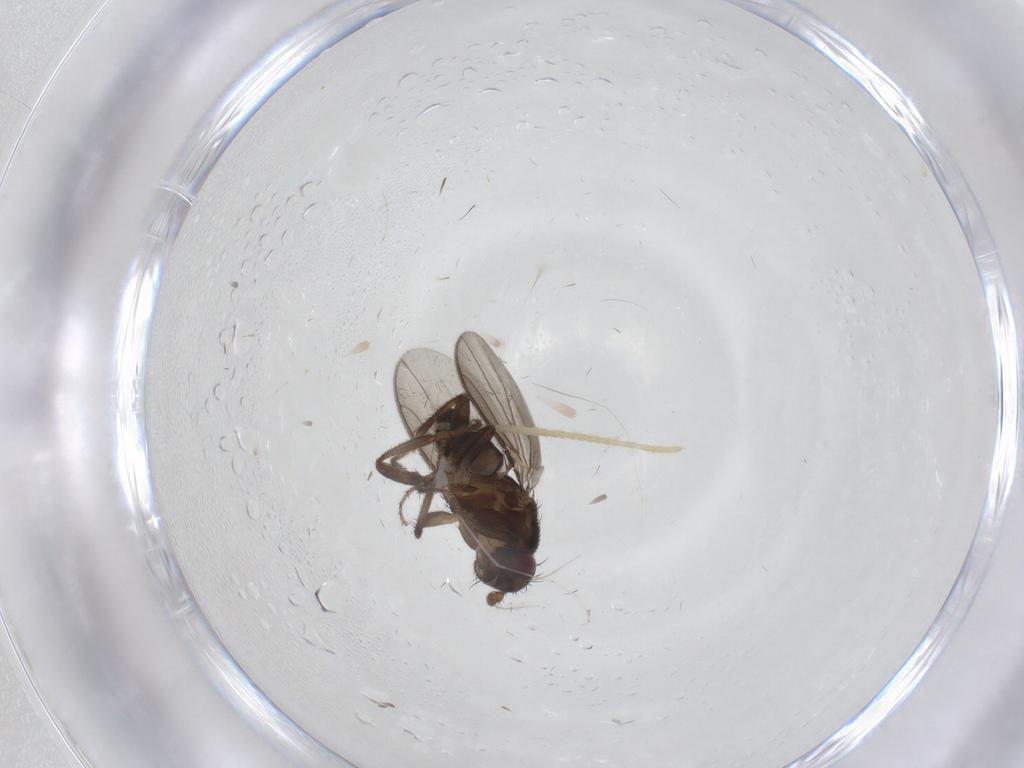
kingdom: Animalia
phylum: Arthropoda
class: Insecta
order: Diptera
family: Sphaeroceridae
